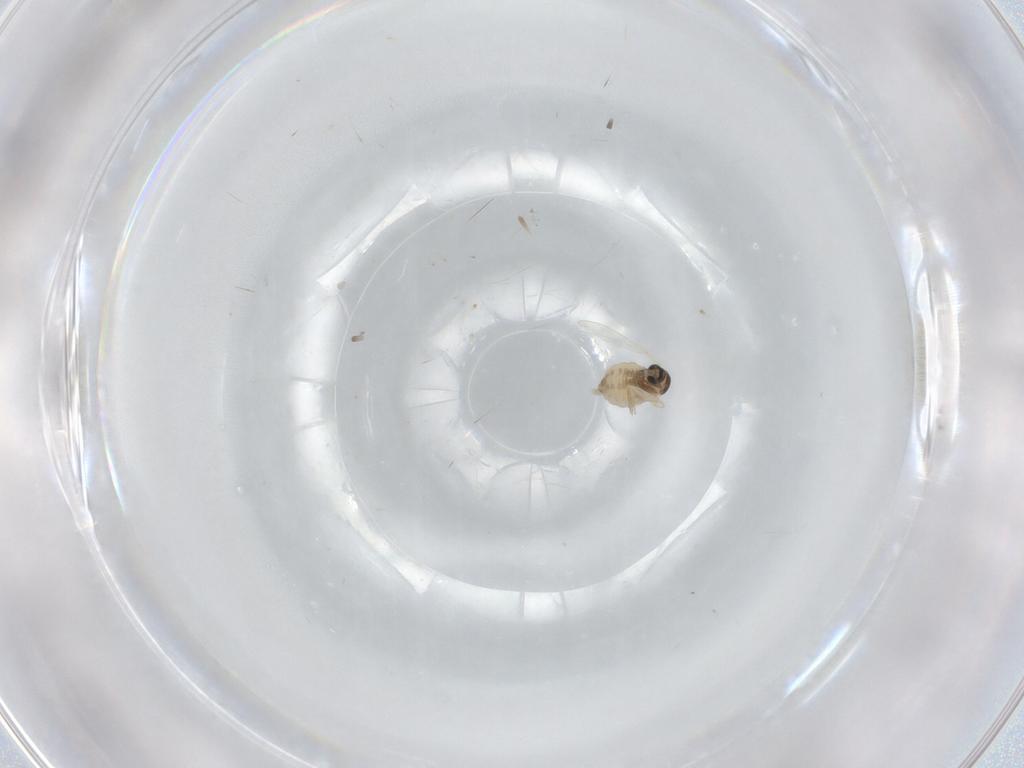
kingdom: Animalia
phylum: Arthropoda
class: Insecta
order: Diptera
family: Cecidomyiidae
